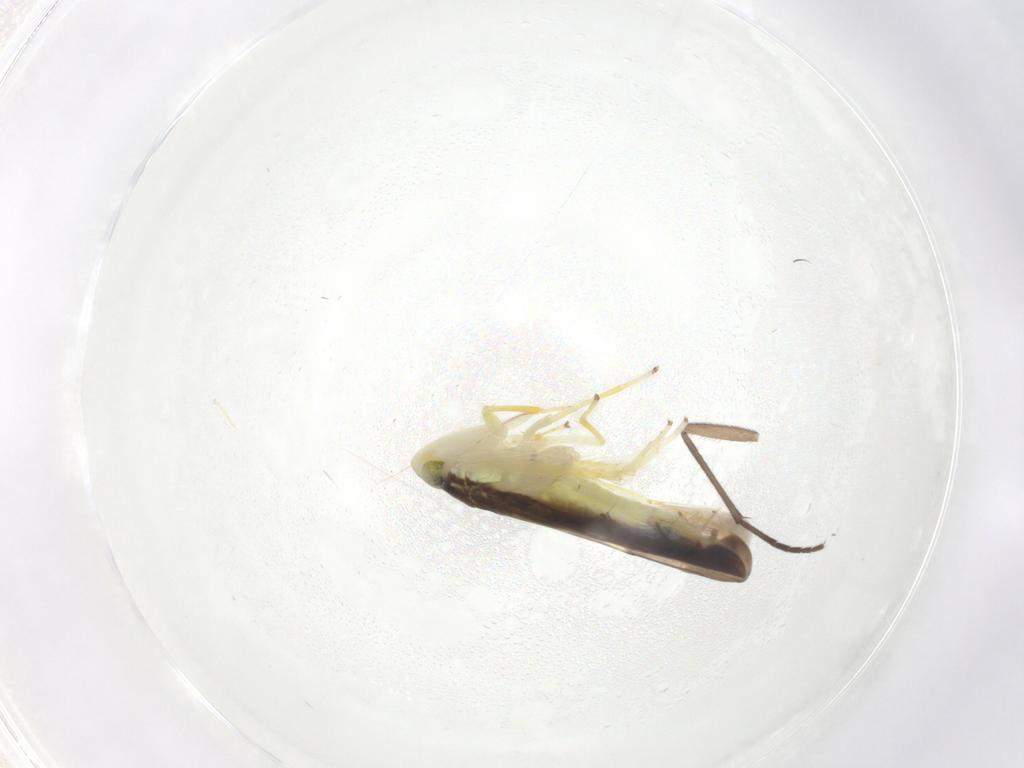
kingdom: Animalia
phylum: Arthropoda
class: Insecta
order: Hemiptera
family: Cicadellidae
